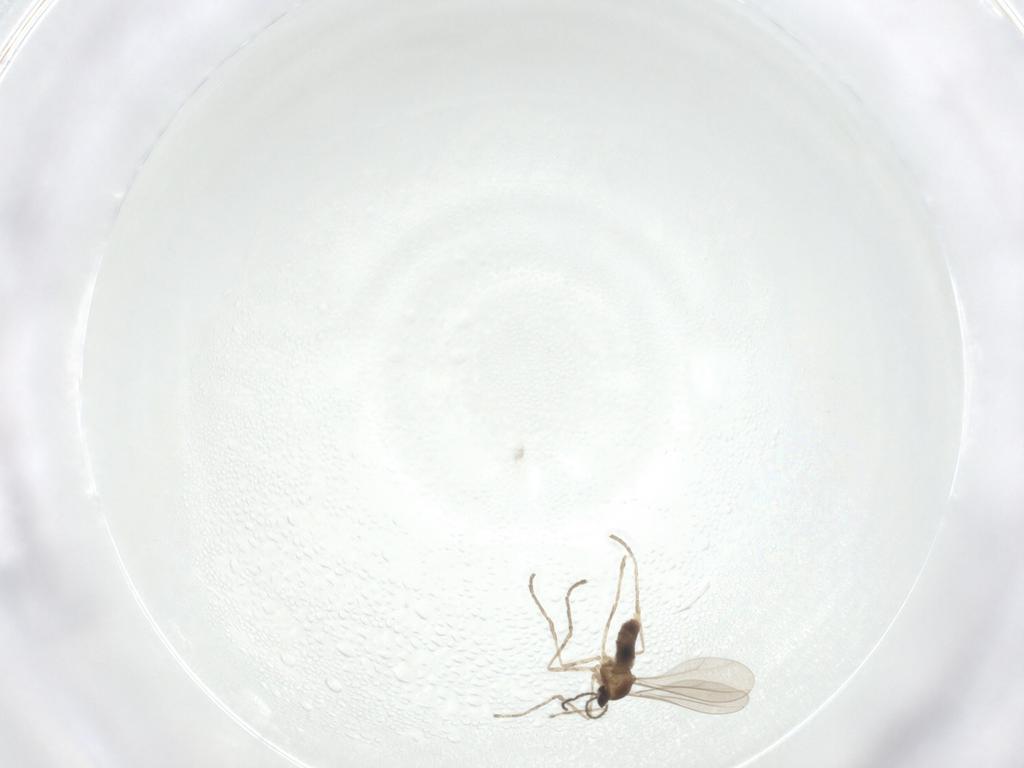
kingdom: Animalia
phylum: Arthropoda
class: Insecta
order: Diptera
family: Cecidomyiidae
